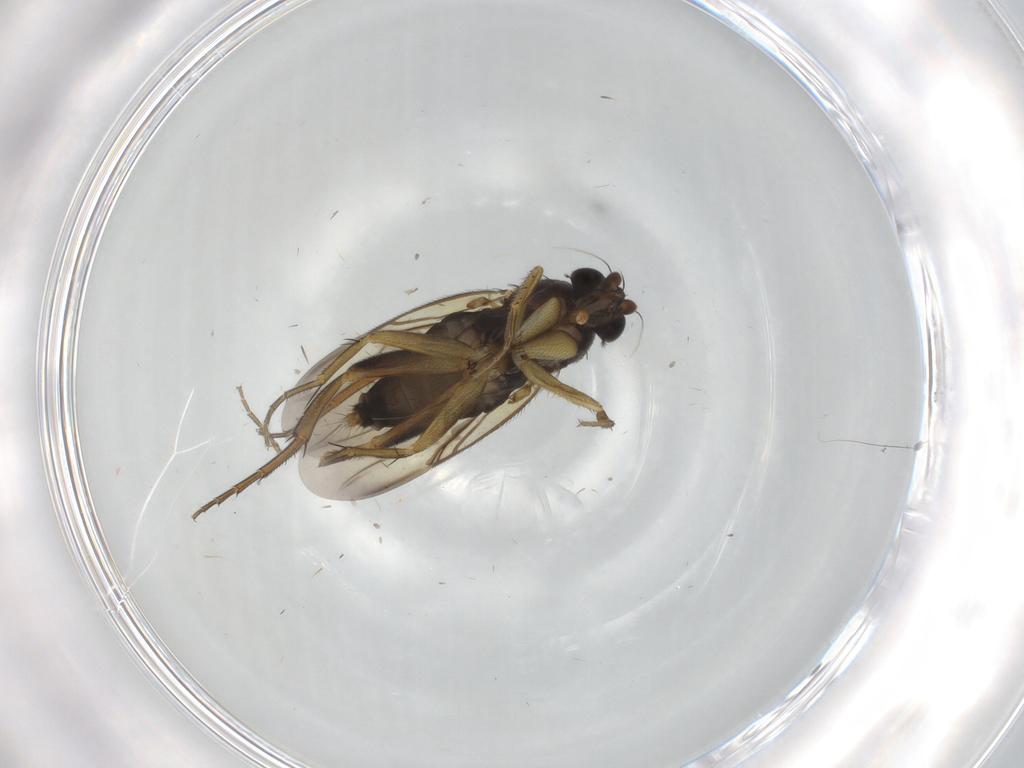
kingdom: Animalia
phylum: Arthropoda
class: Insecta
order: Diptera
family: Phoridae
